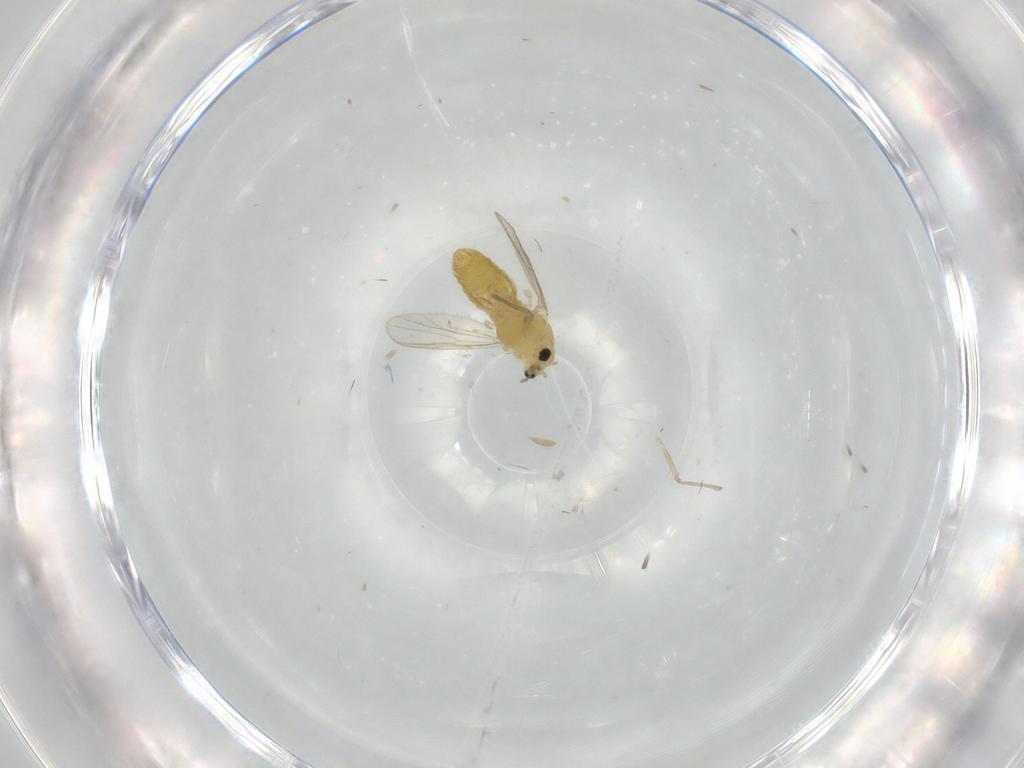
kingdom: Animalia
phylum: Arthropoda
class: Insecta
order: Diptera
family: Chironomidae
